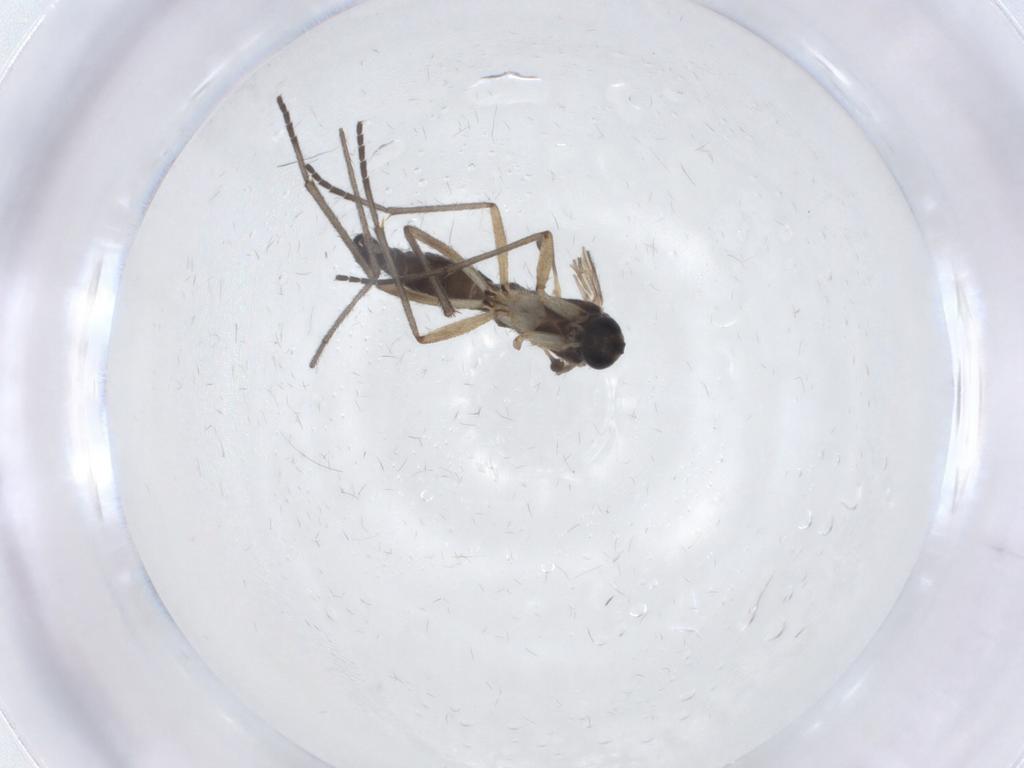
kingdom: Animalia
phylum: Arthropoda
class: Insecta
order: Diptera
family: Sciaridae
